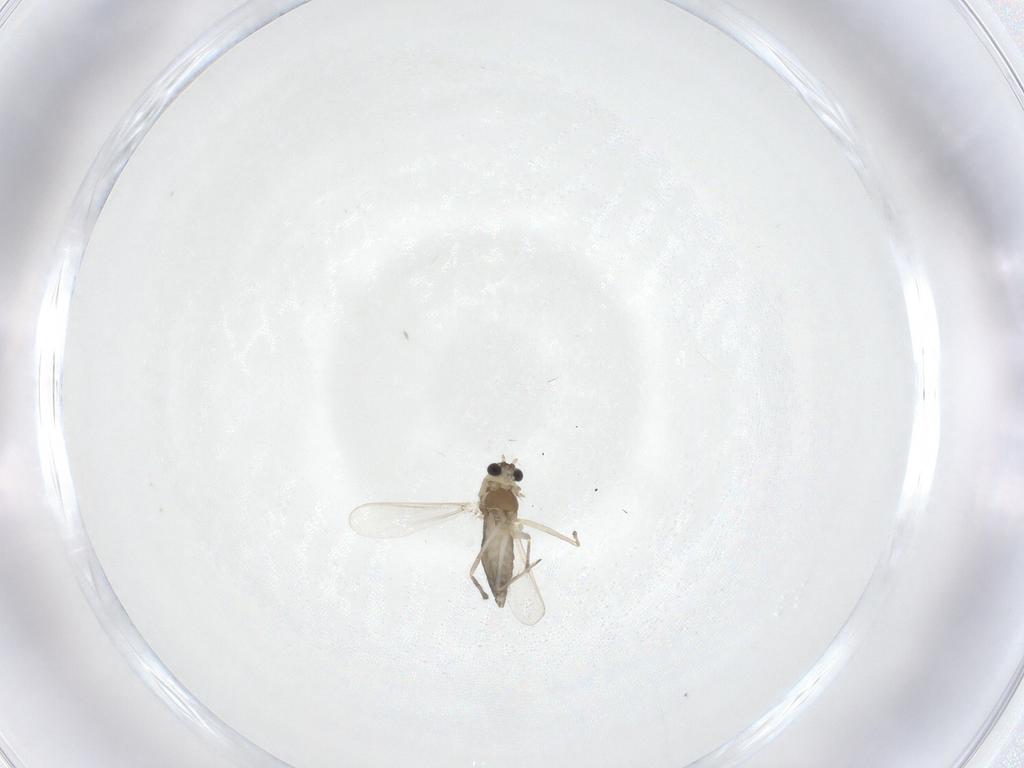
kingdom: Animalia
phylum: Arthropoda
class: Insecta
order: Diptera
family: Chironomidae
